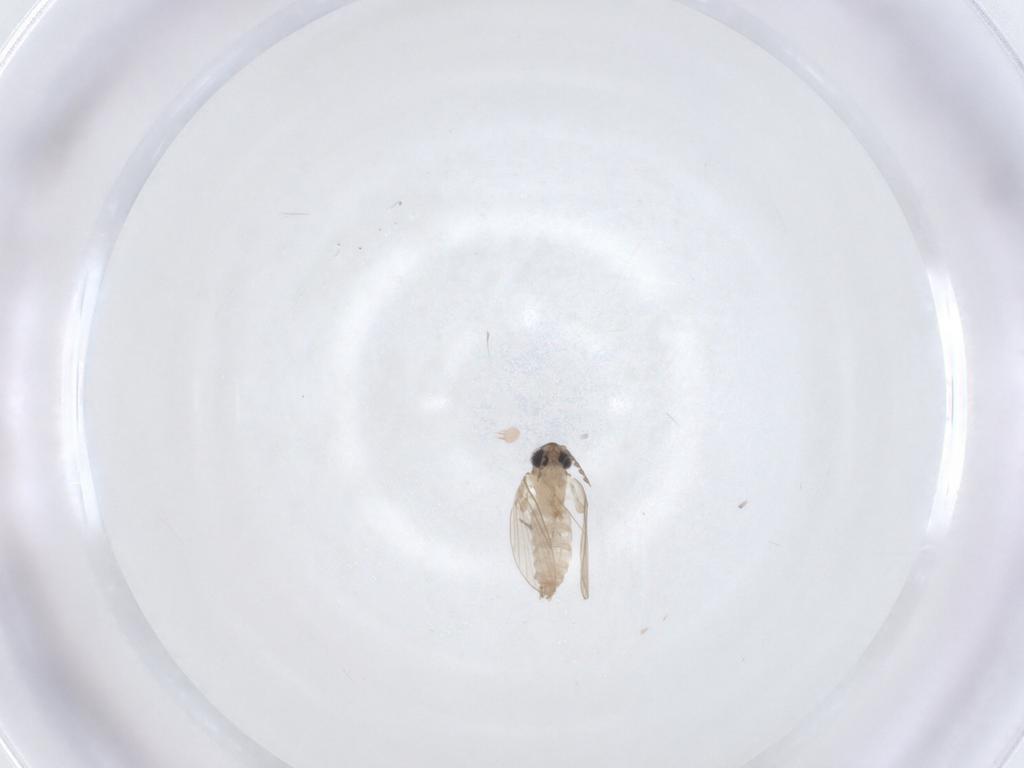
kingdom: Animalia
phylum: Arthropoda
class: Insecta
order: Diptera
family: Psychodidae
